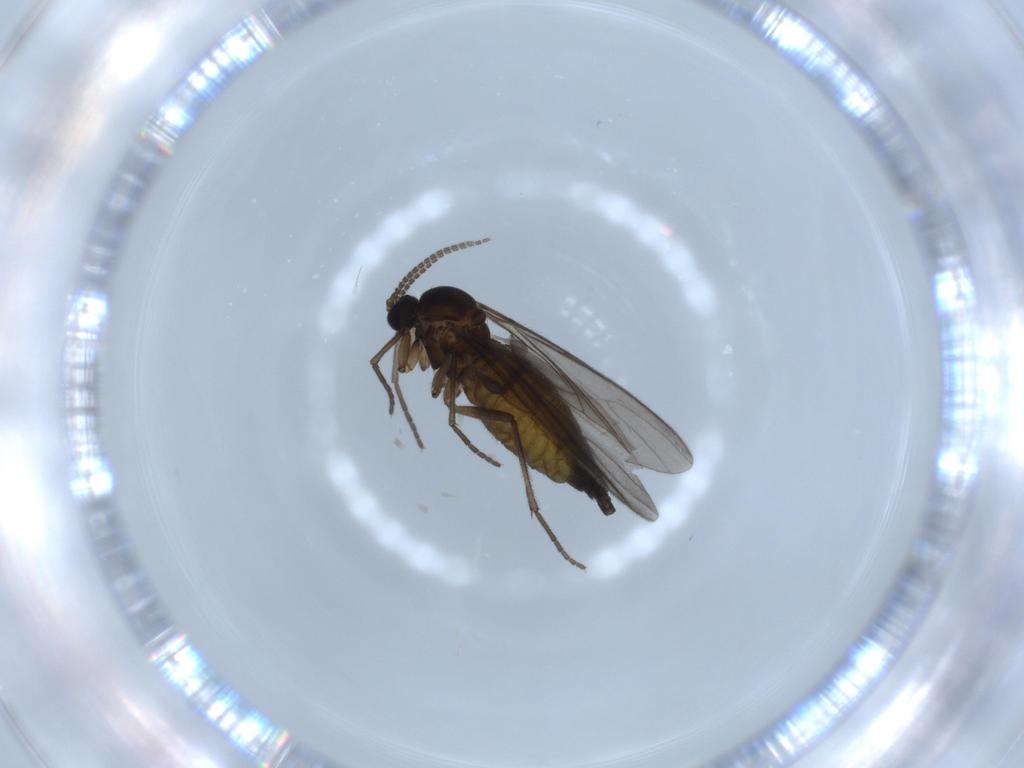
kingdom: Animalia
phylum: Arthropoda
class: Insecta
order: Diptera
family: Sciaridae
